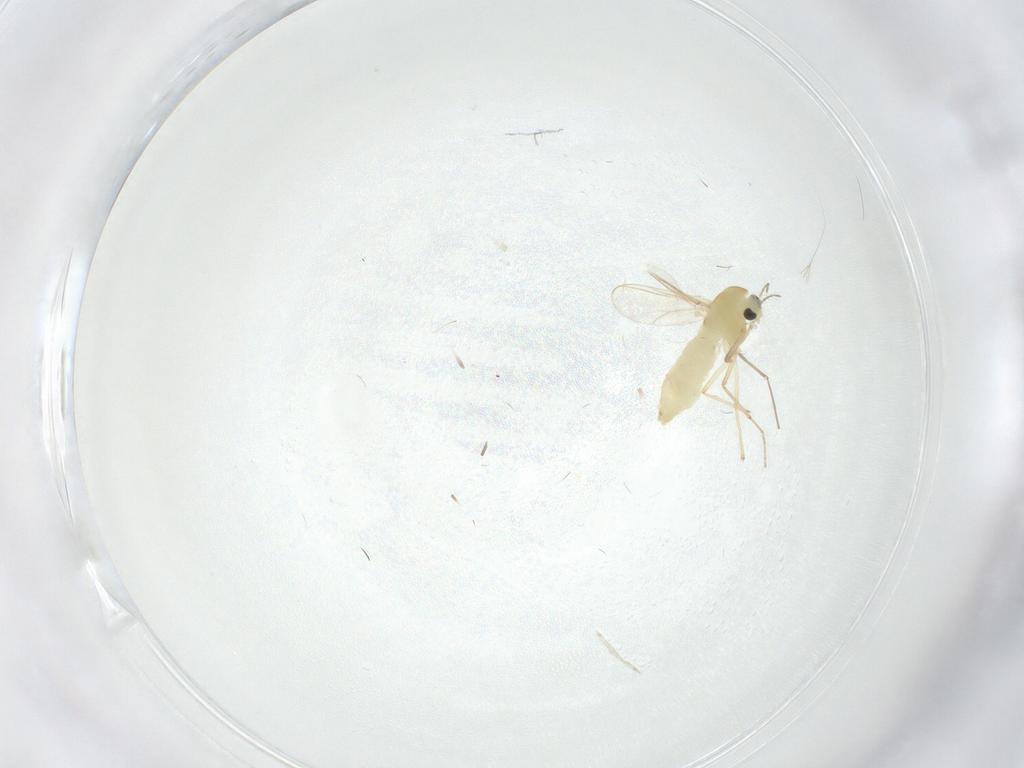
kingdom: Animalia
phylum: Arthropoda
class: Insecta
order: Diptera
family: Chironomidae
